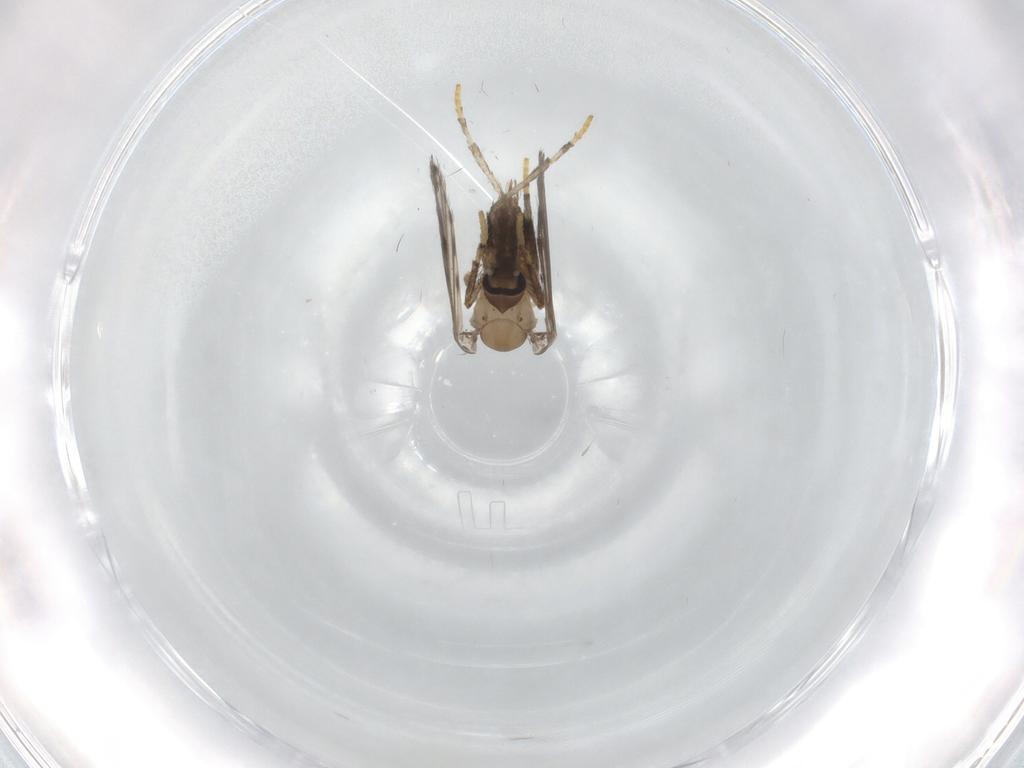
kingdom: Animalia
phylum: Arthropoda
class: Insecta
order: Diptera
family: Psychodidae
